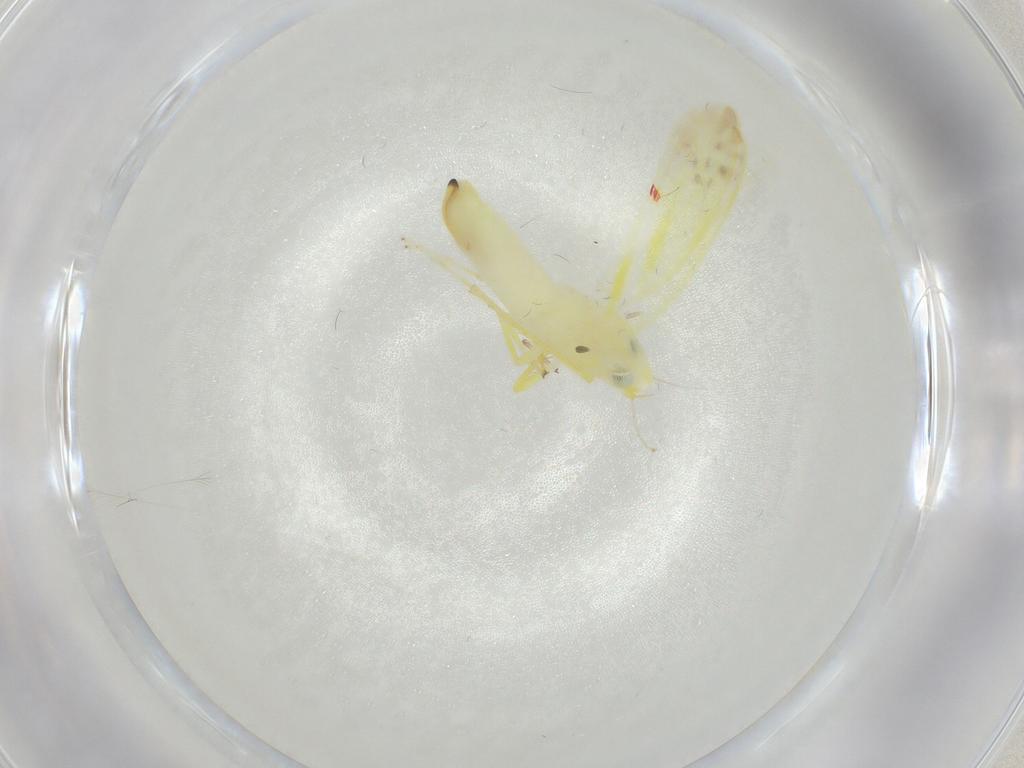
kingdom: Animalia
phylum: Arthropoda
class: Insecta
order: Hemiptera
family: Cicadellidae
